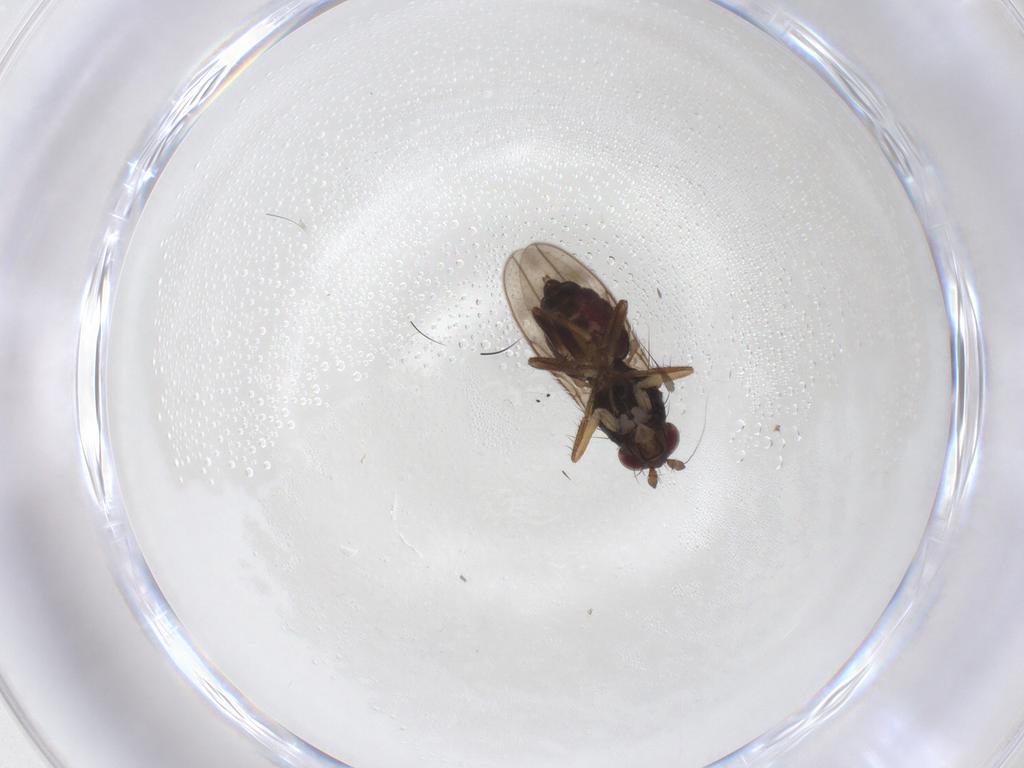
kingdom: Animalia
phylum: Arthropoda
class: Insecta
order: Diptera
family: Sphaeroceridae
